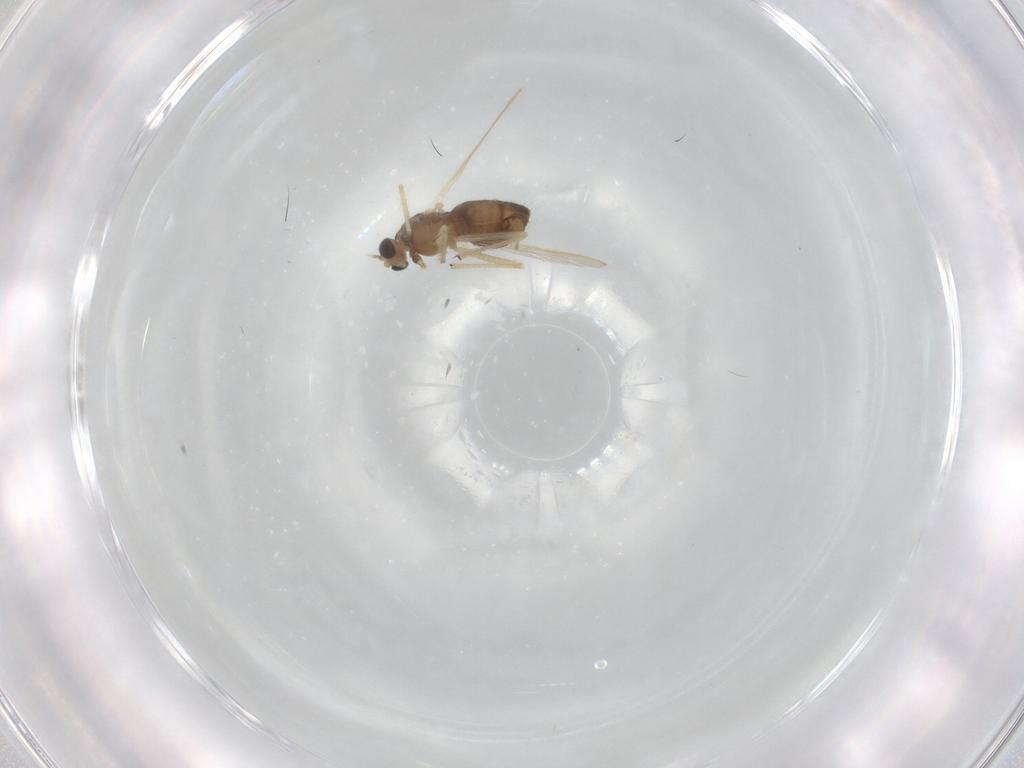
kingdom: Animalia
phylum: Arthropoda
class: Insecta
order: Diptera
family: Chironomidae
